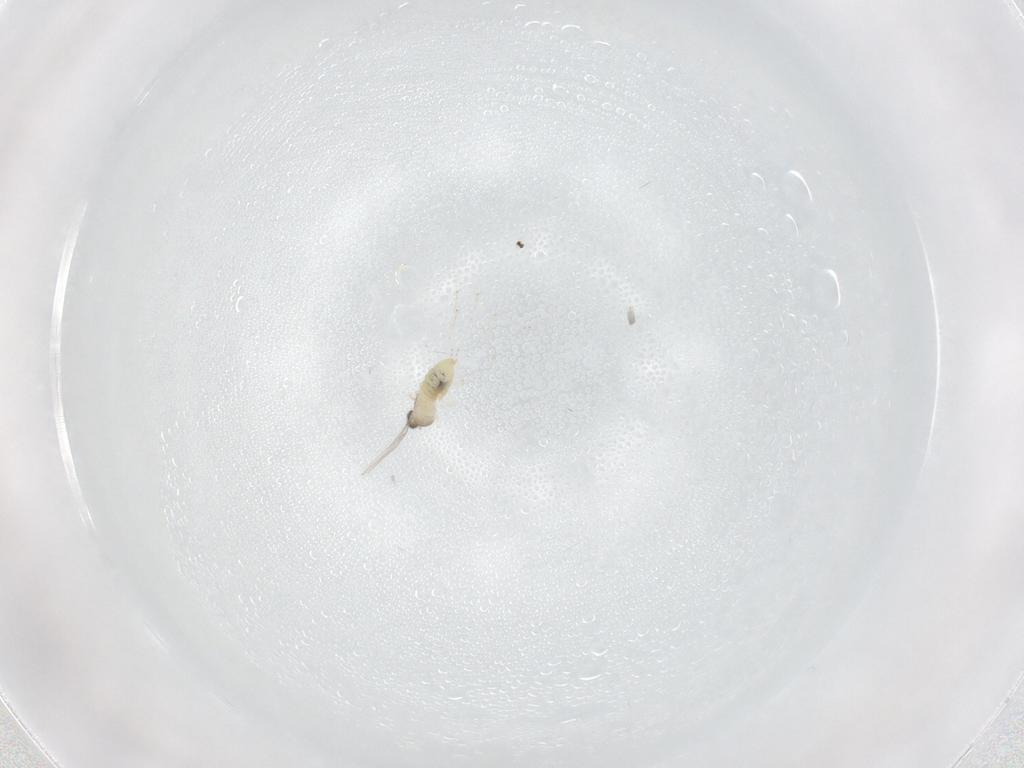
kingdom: Animalia
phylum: Arthropoda
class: Insecta
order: Diptera
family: Cecidomyiidae
